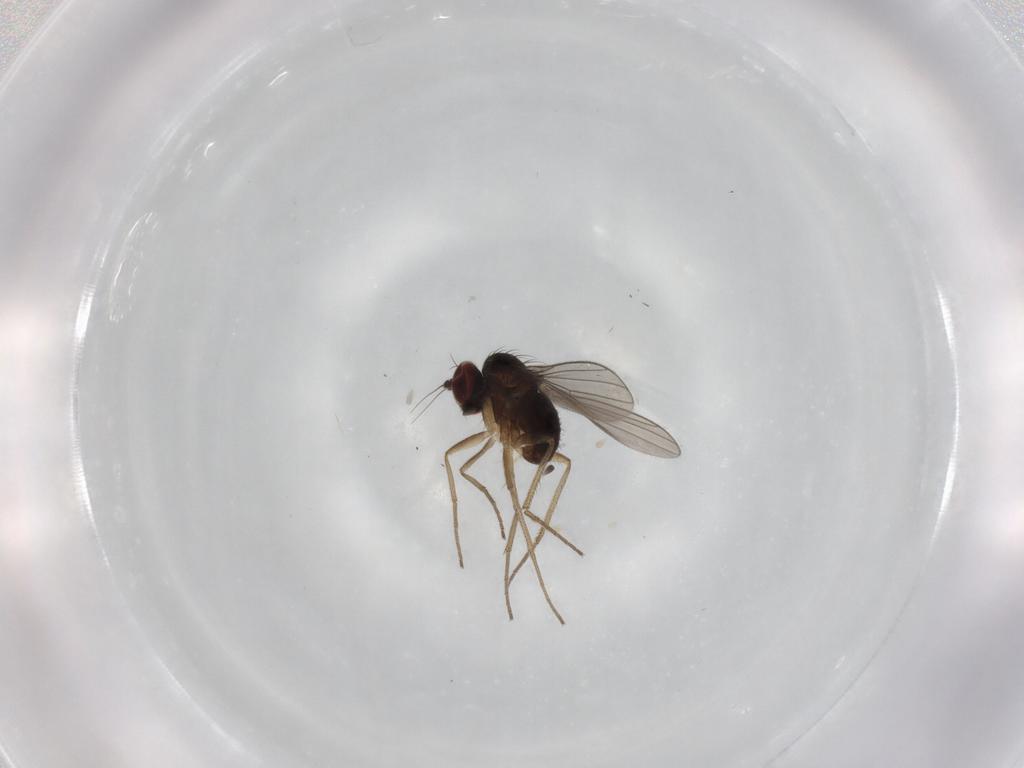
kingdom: Animalia
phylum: Arthropoda
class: Insecta
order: Diptera
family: Dolichopodidae
